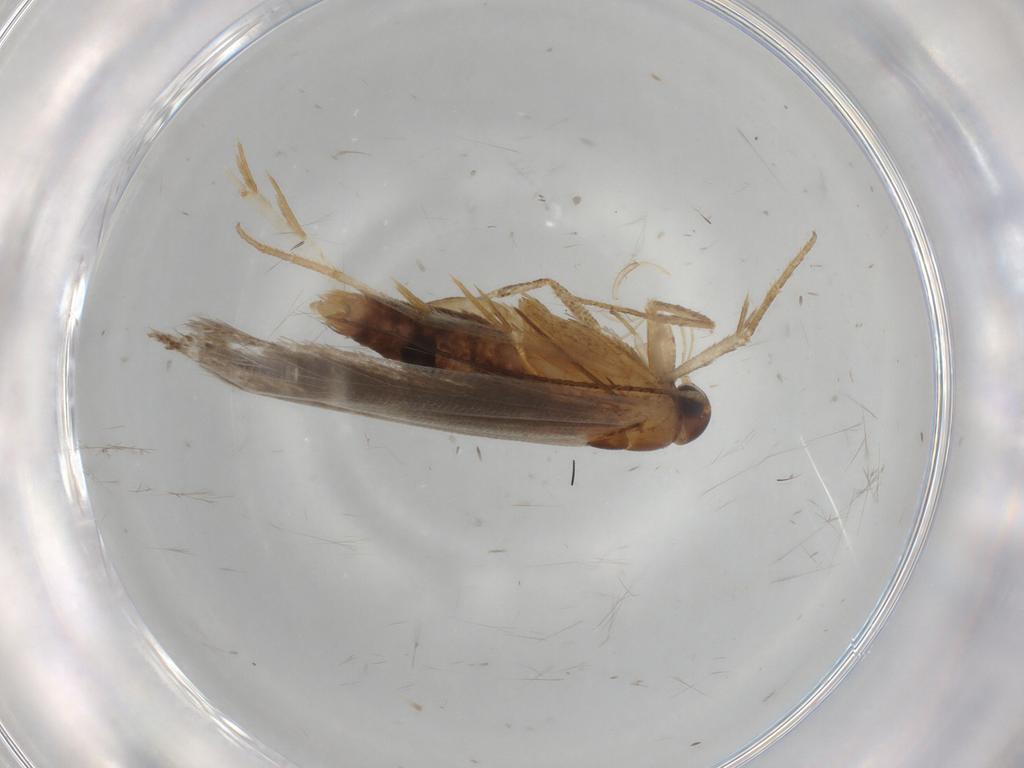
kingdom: Animalia
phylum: Arthropoda
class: Insecta
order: Lepidoptera
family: Gelechiidae
